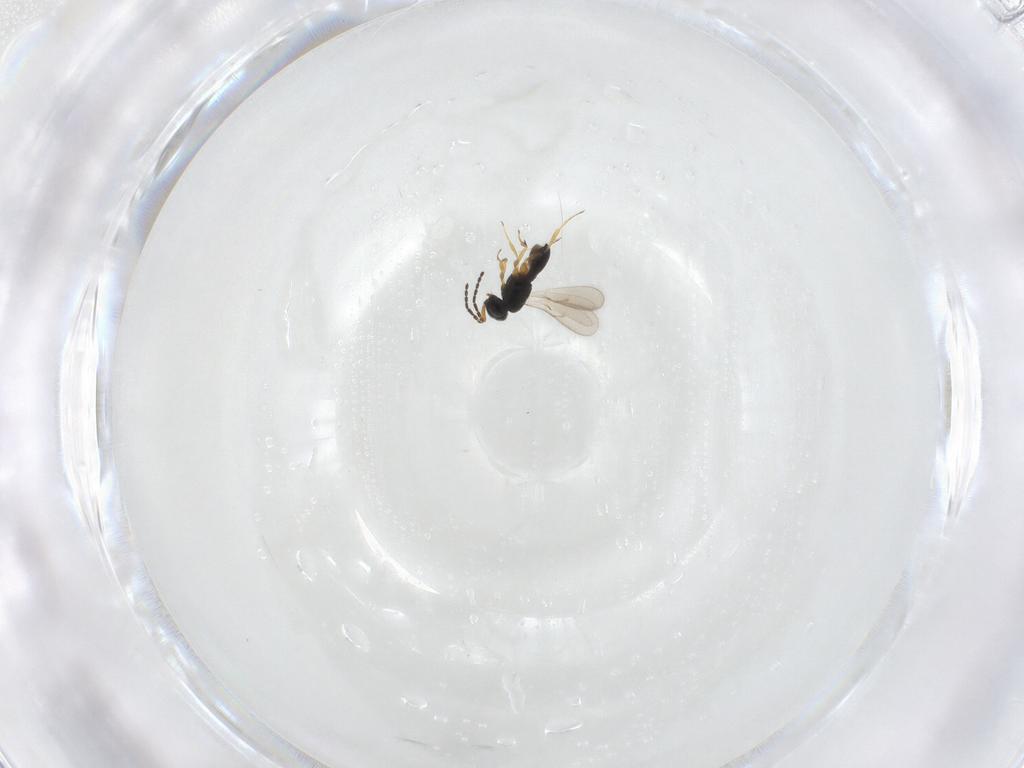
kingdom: Animalia
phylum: Arthropoda
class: Insecta
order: Hymenoptera
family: Scelionidae
